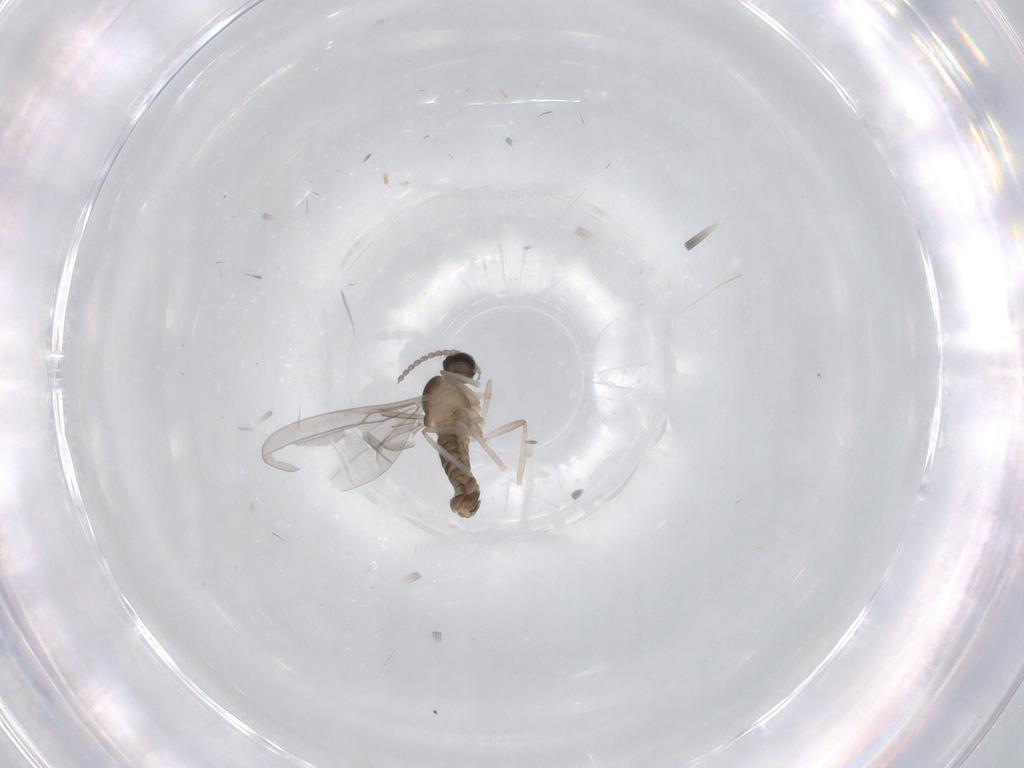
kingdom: Animalia
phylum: Arthropoda
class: Insecta
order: Diptera
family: Cecidomyiidae
